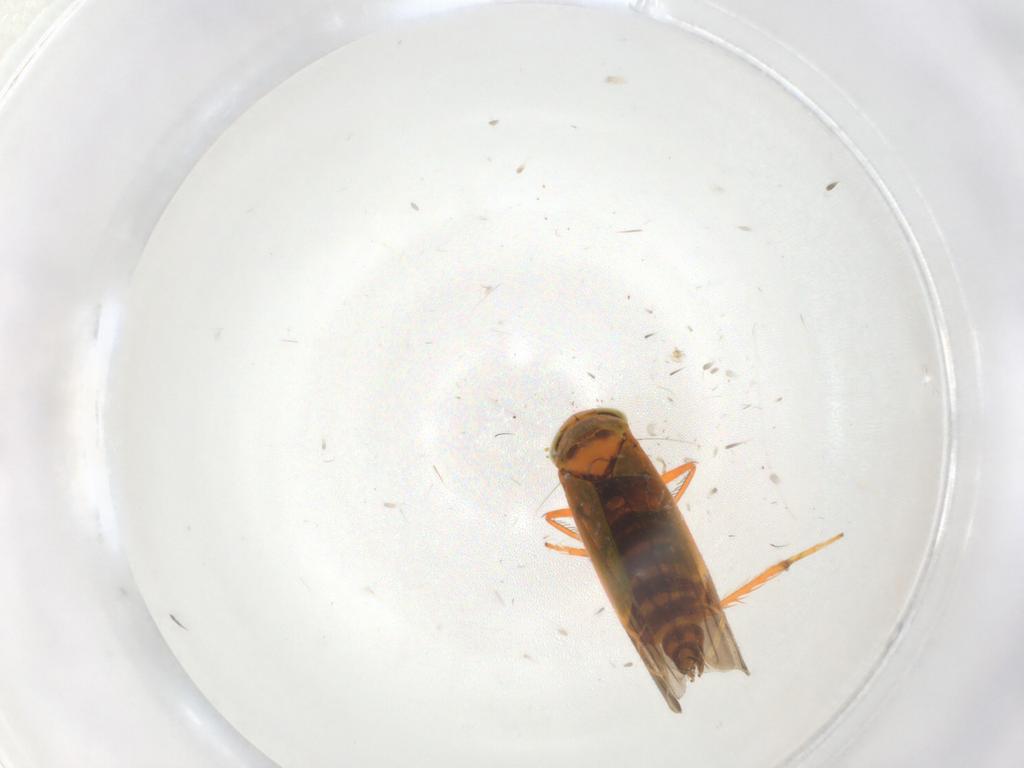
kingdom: Animalia
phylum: Arthropoda
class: Insecta
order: Hemiptera
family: Cicadellidae
